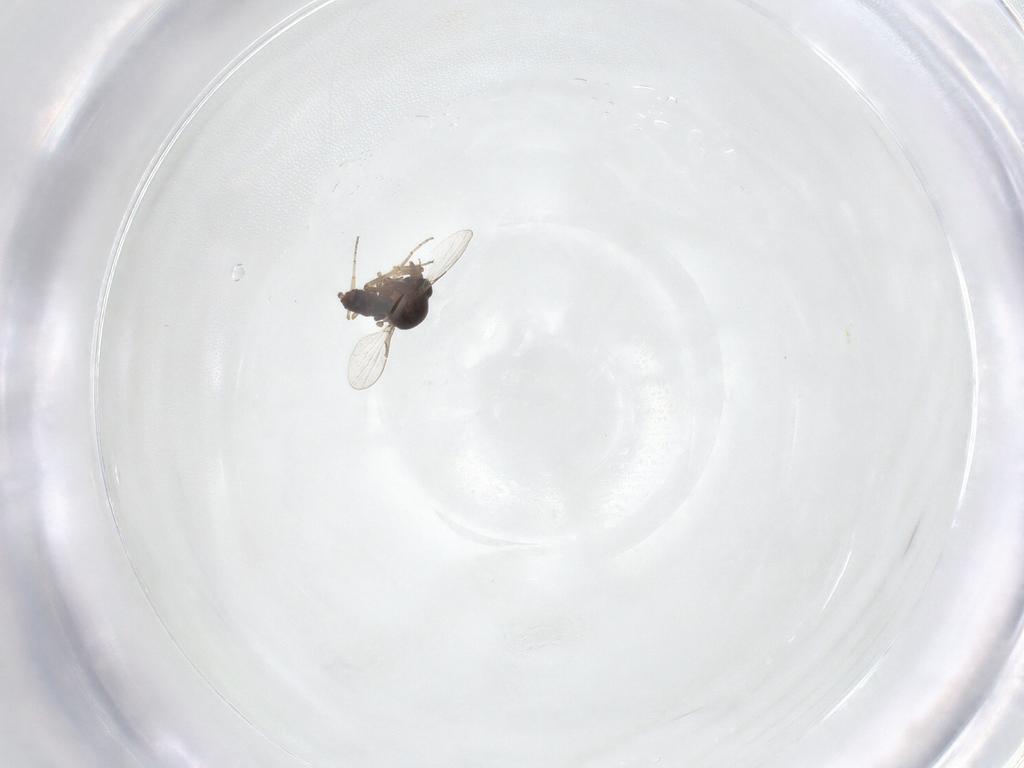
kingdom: Animalia
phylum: Arthropoda
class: Insecta
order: Diptera
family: Ceratopogonidae
